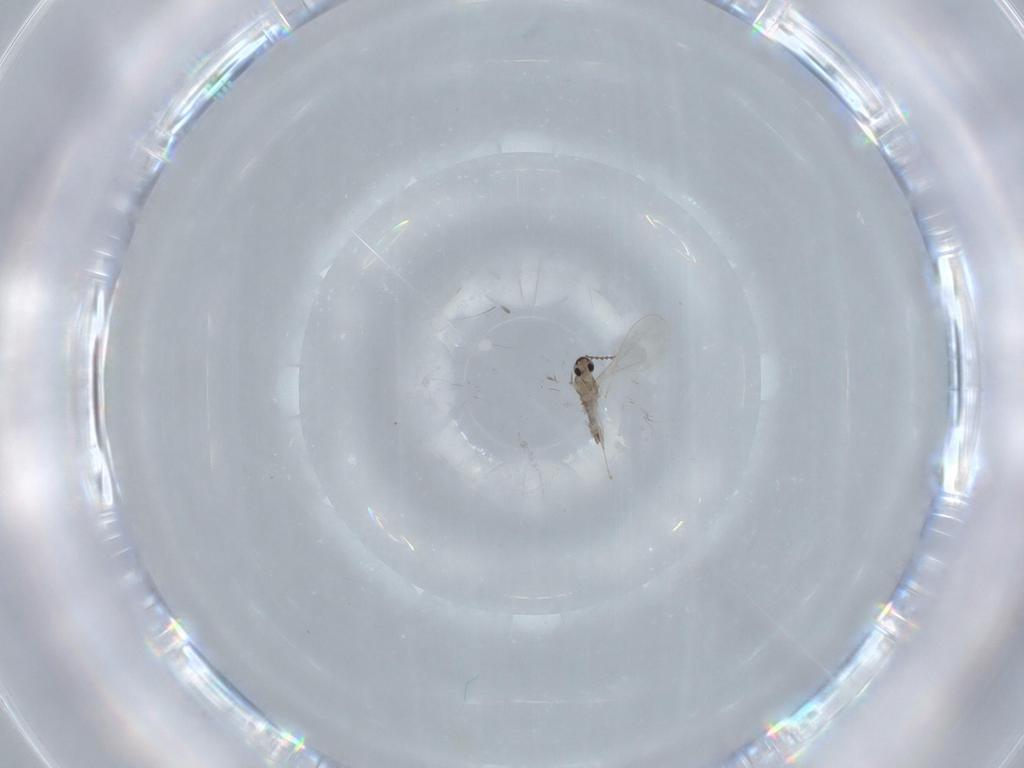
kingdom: Animalia
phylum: Arthropoda
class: Insecta
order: Diptera
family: Cecidomyiidae
